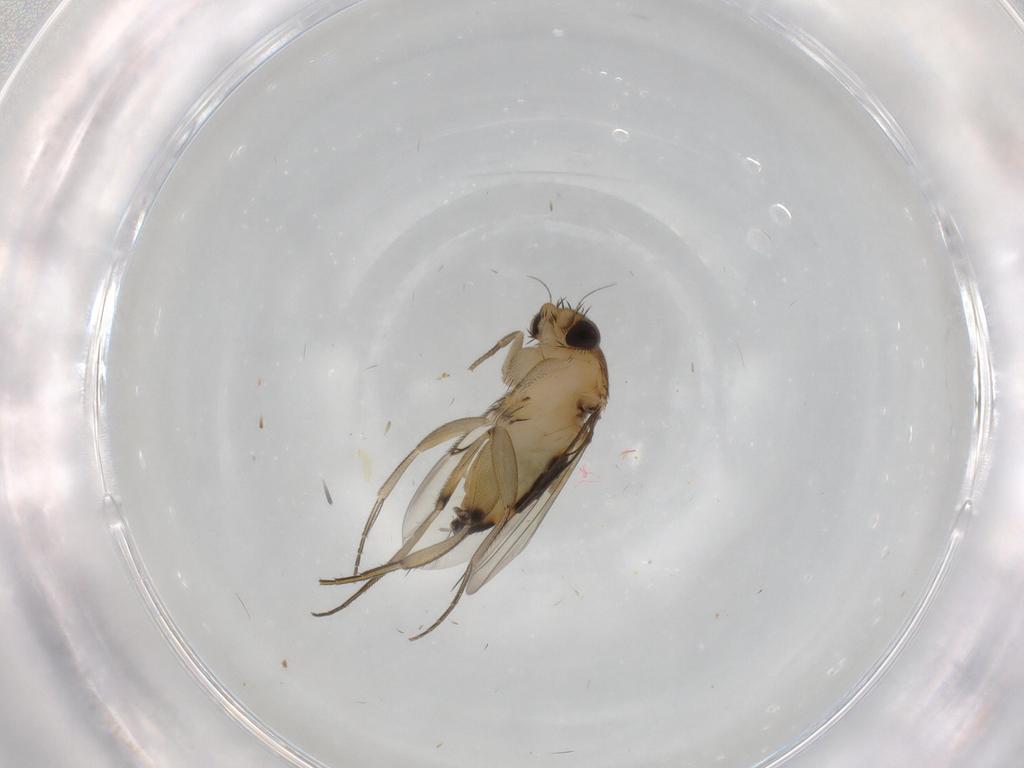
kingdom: Animalia
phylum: Arthropoda
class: Insecta
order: Diptera
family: Phoridae
